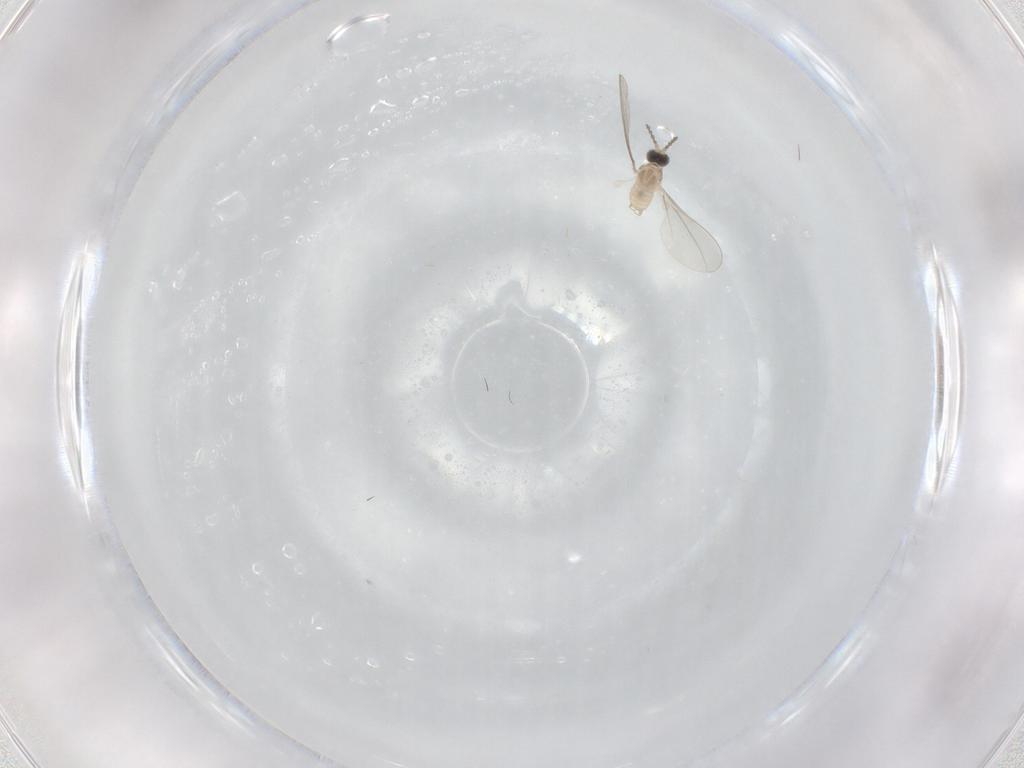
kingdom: Animalia
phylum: Arthropoda
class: Insecta
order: Diptera
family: Cecidomyiidae
